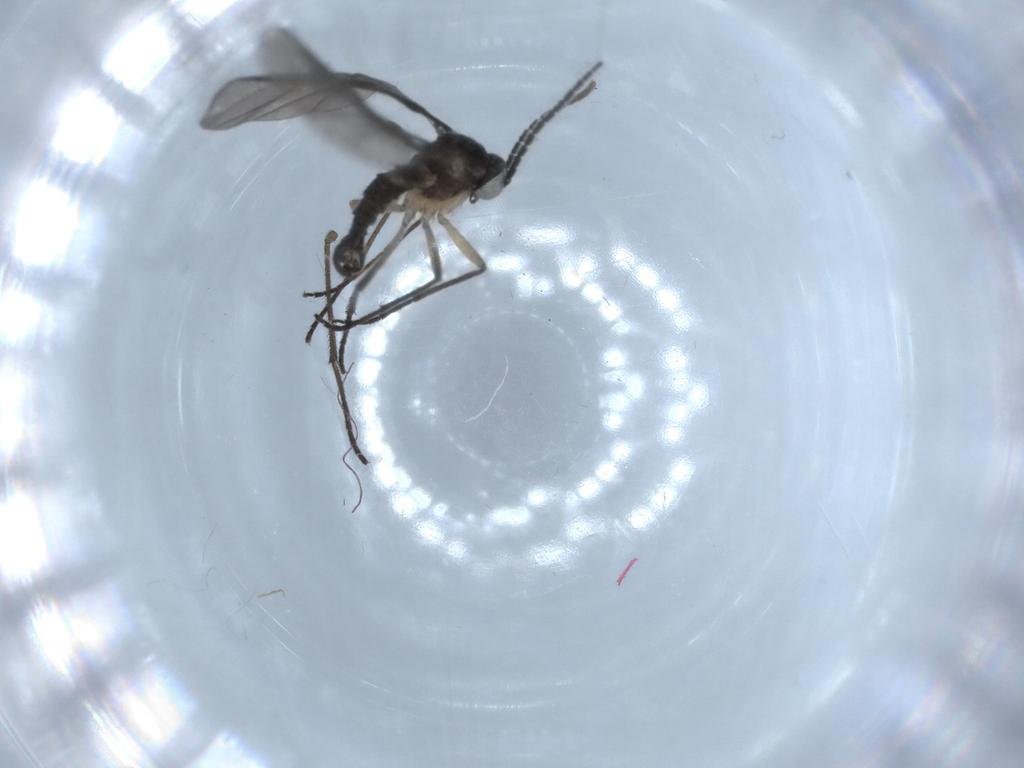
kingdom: Animalia
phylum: Arthropoda
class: Insecta
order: Diptera
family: Sciaridae
